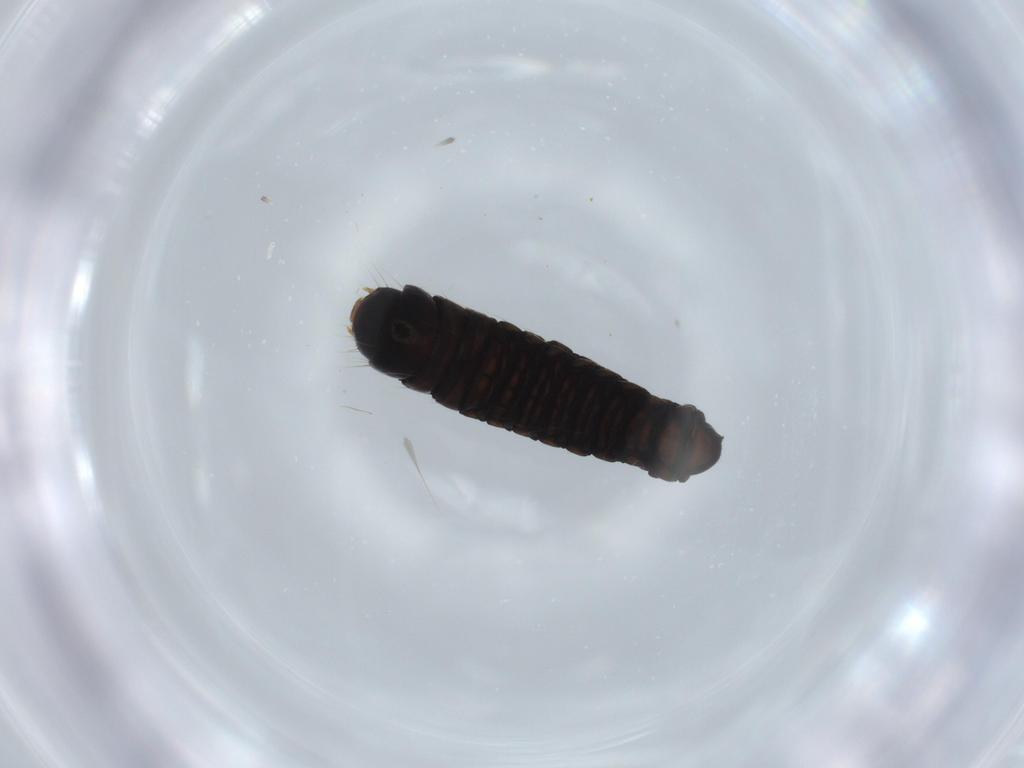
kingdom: Animalia
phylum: Arthropoda
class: Insecta
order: Lepidoptera
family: Psychidae
